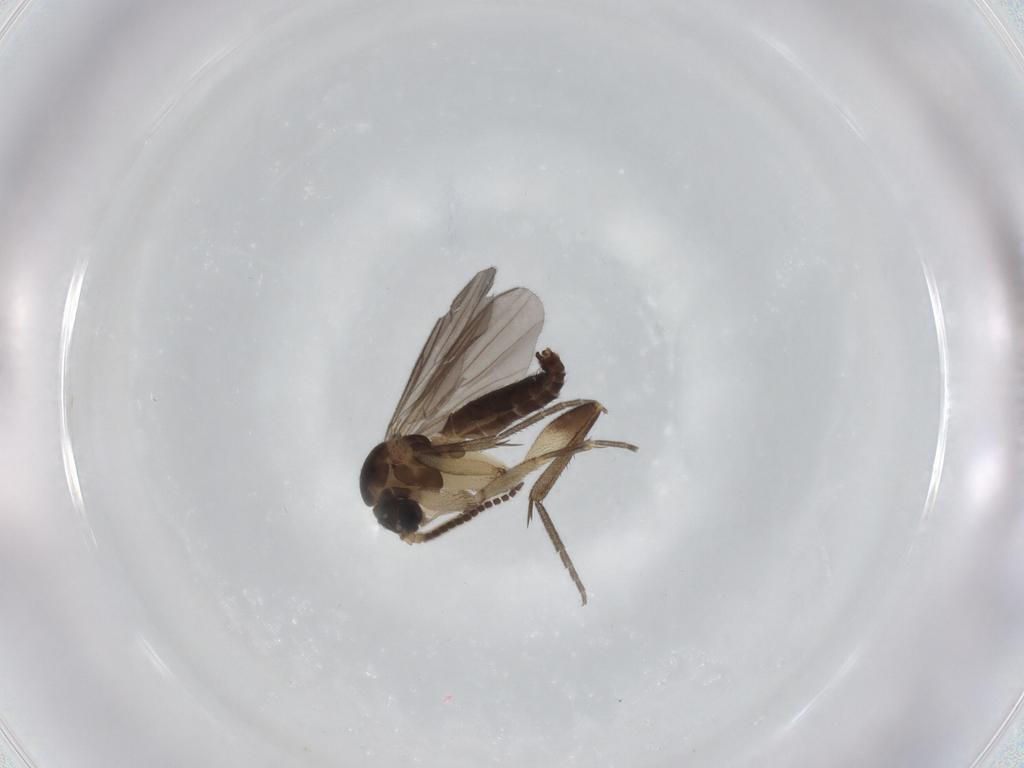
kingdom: Animalia
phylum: Arthropoda
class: Insecta
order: Diptera
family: Mycetophilidae
